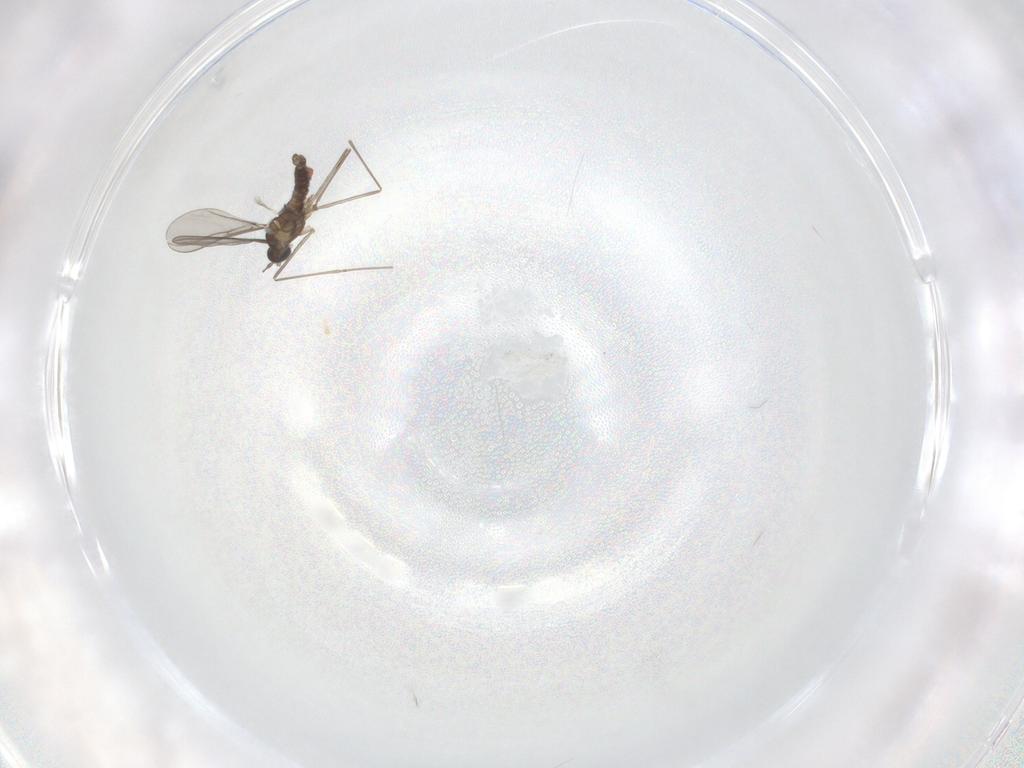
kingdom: Animalia
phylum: Arthropoda
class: Insecta
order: Diptera
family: Cecidomyiidae
